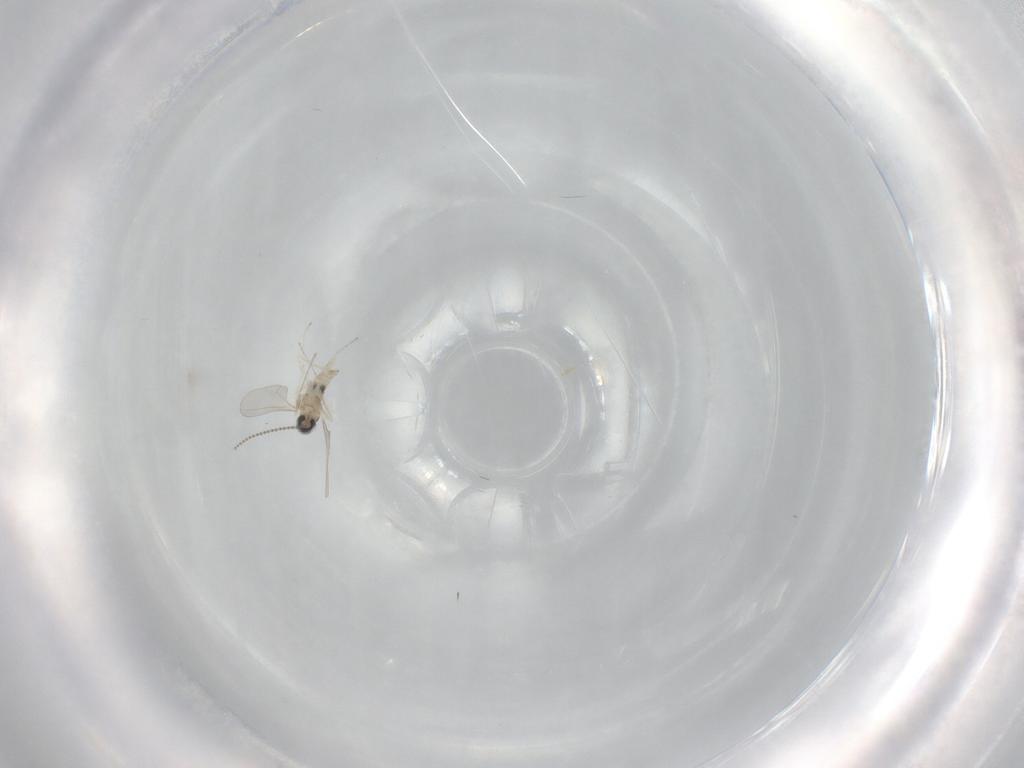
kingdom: Animalia
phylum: Arthropoda
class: Insecta
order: Diptera
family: Cecidomyiidae
